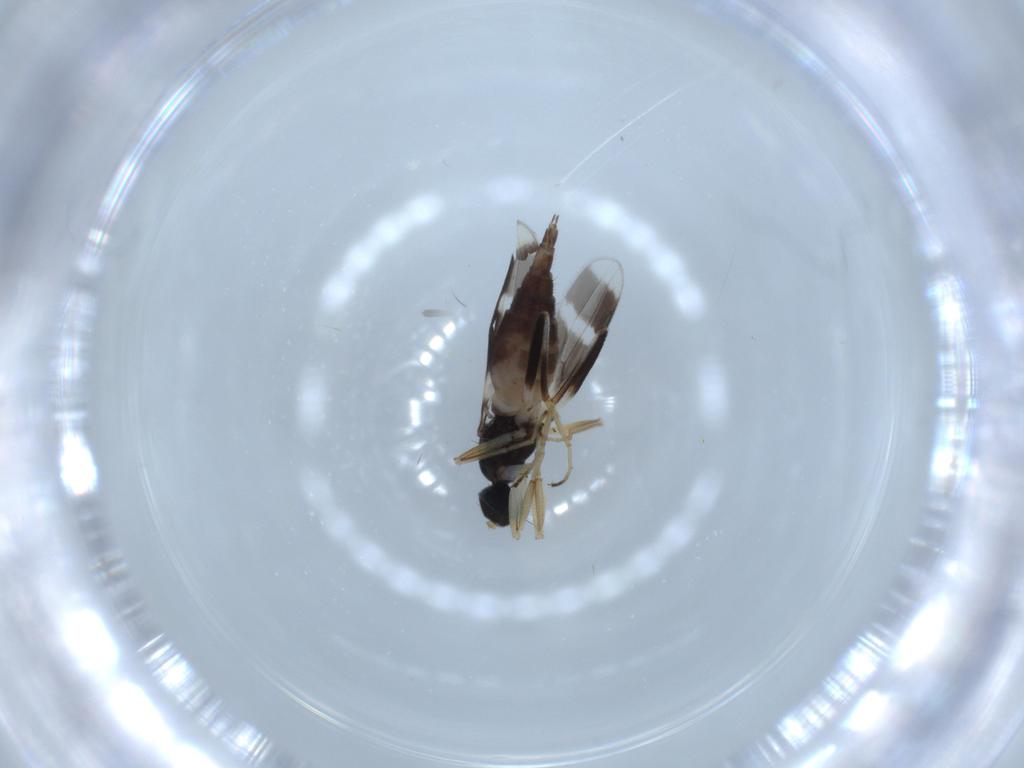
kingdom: Animalia
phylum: Arthropoda
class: Insecta
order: Diptera
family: Hybotidae
